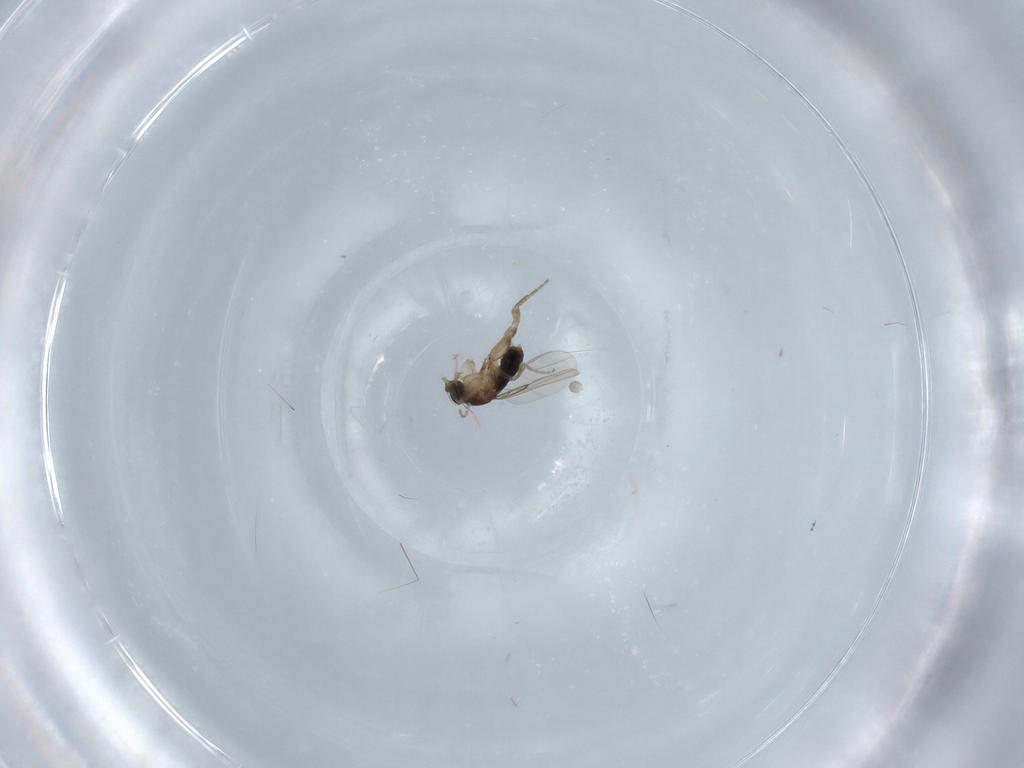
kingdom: Animalia
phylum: Arthropoda
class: Insecta
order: Diptera
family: Phoridae
